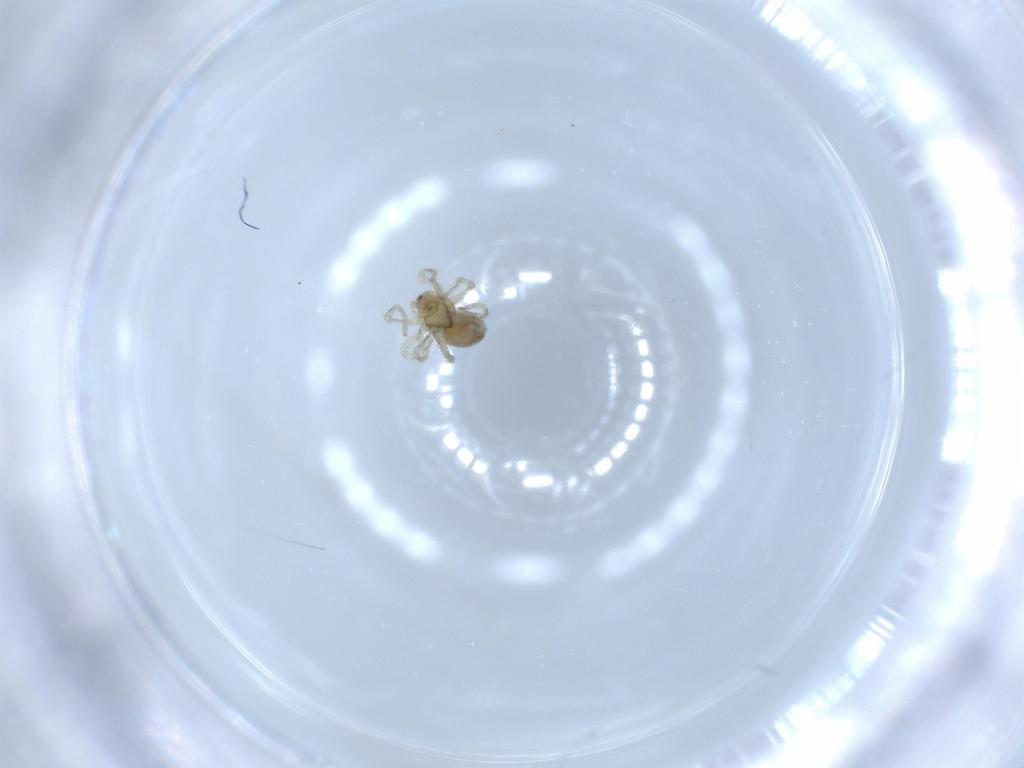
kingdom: Animalia
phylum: Arthropoda
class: Arachnida
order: Araneae
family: Dictynidae
